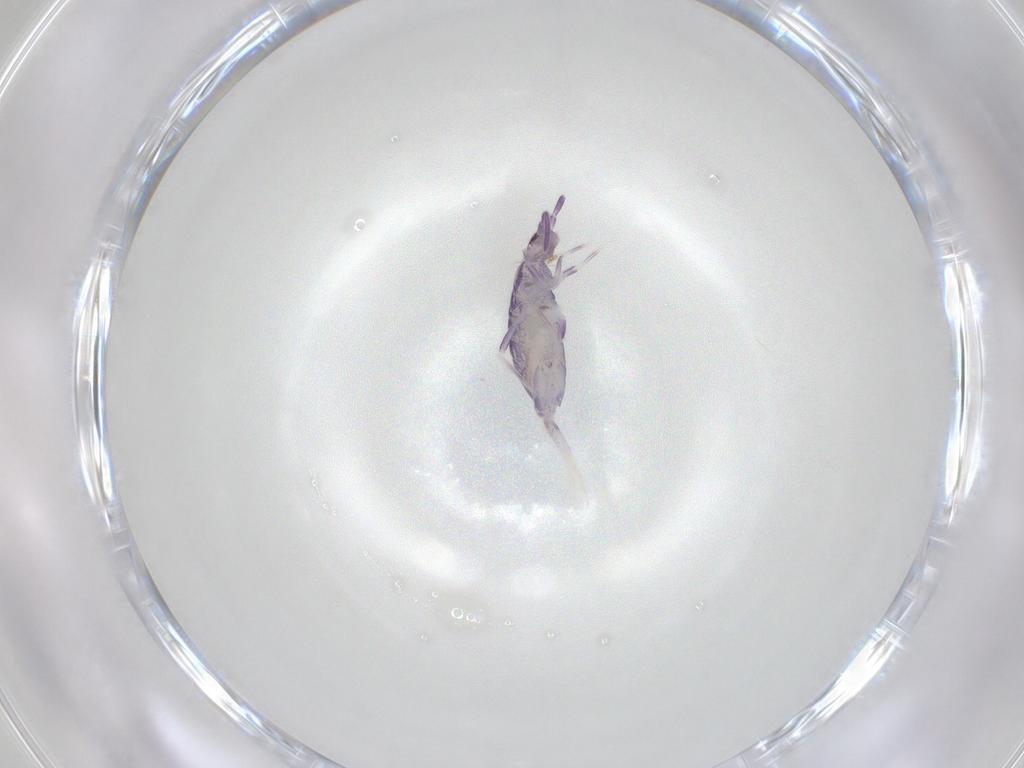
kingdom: Animalia
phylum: Arthropoda
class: Collembola
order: Entomobryomorpha
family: Entomobryidae
